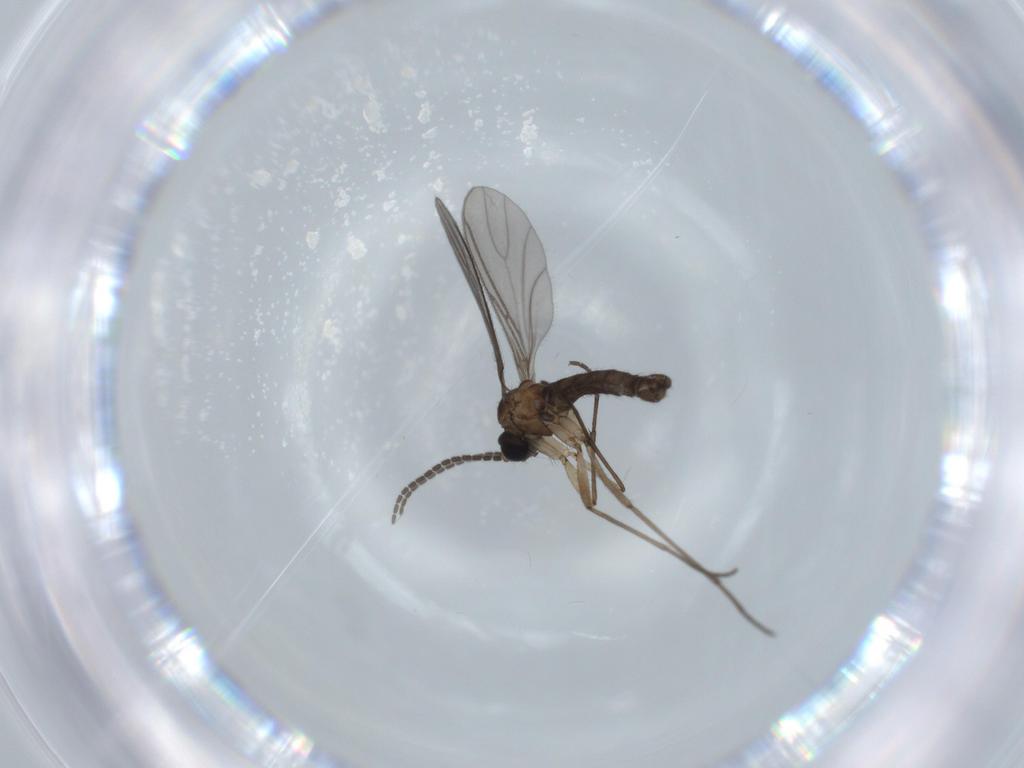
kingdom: Animalia
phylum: Arthropoda
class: Insecta
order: Diptera
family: Sciaridae
